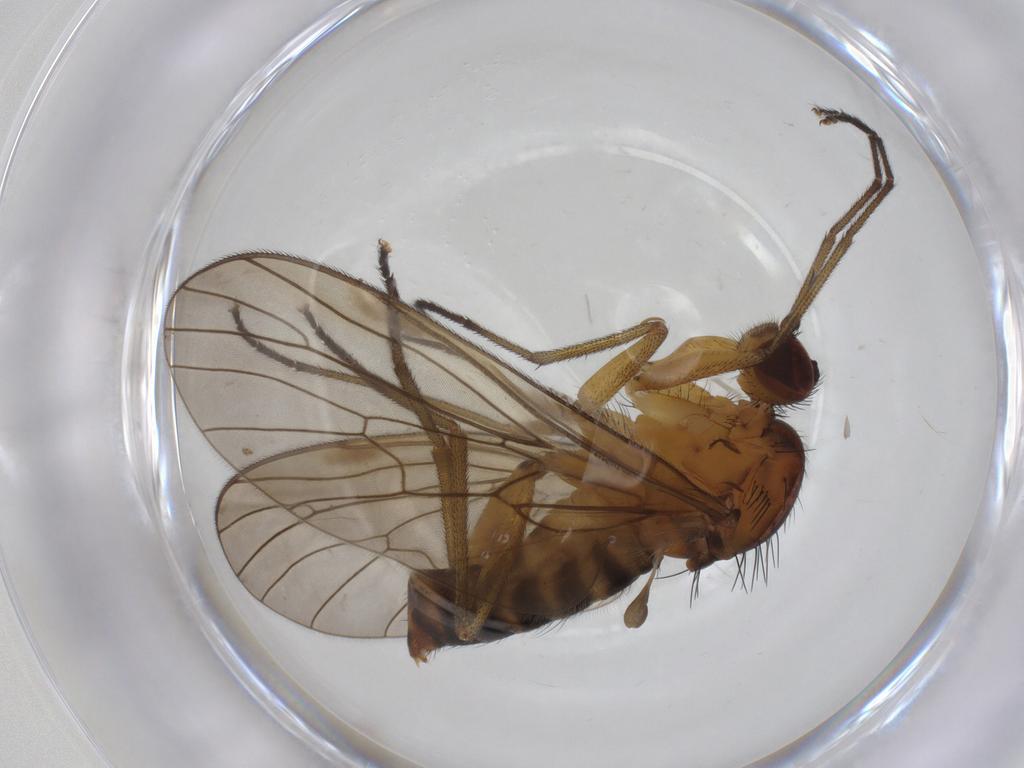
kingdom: Animalia
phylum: Arthropoda
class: Insecta
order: Diptera
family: Brachystomatidae
